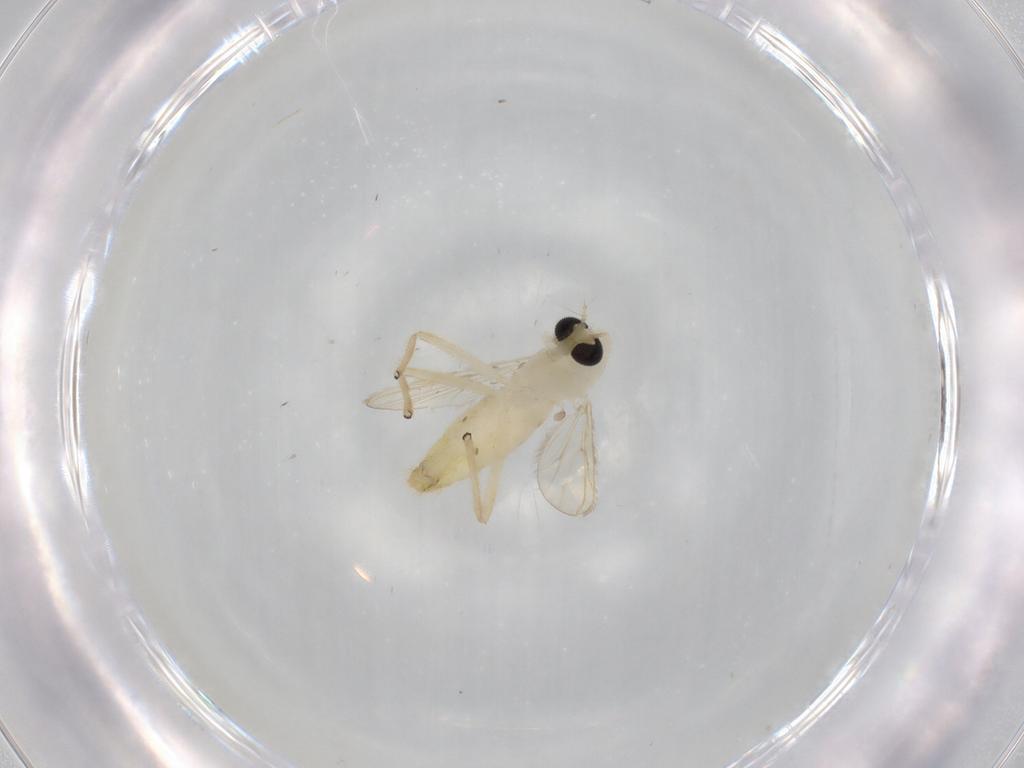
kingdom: Animalia
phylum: Arthropoda
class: Insecta
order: Diptera
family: Chironomidae
